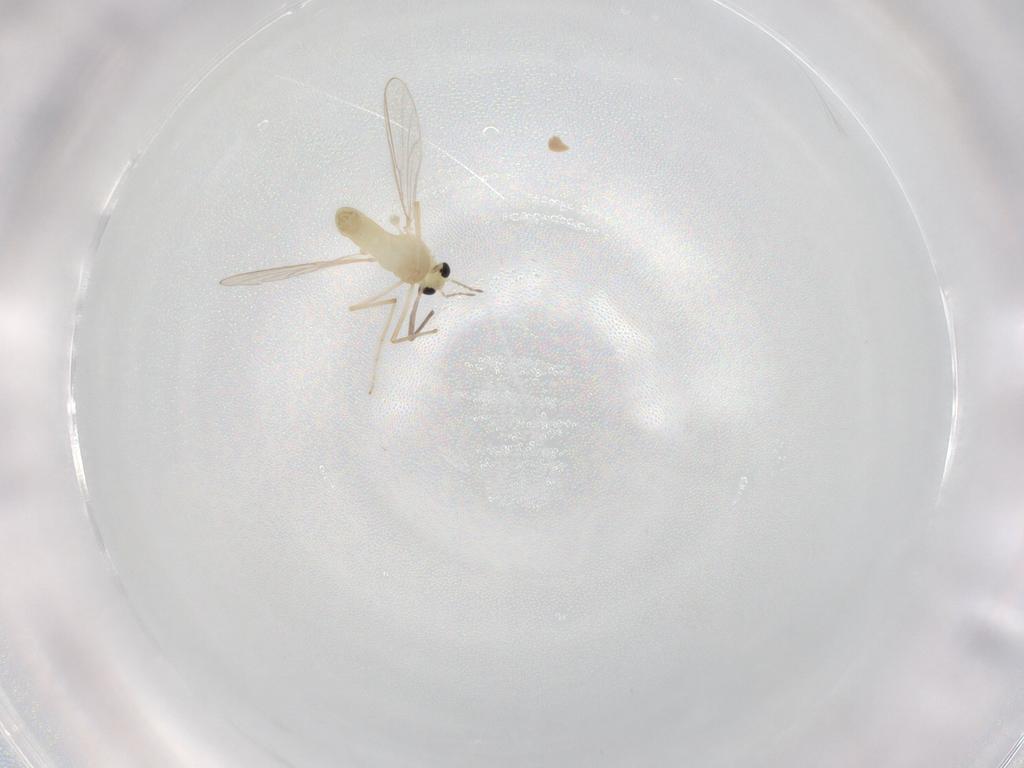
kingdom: Animalia
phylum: Arthropoda
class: Insecta
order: Diptera
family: Chironomidae
